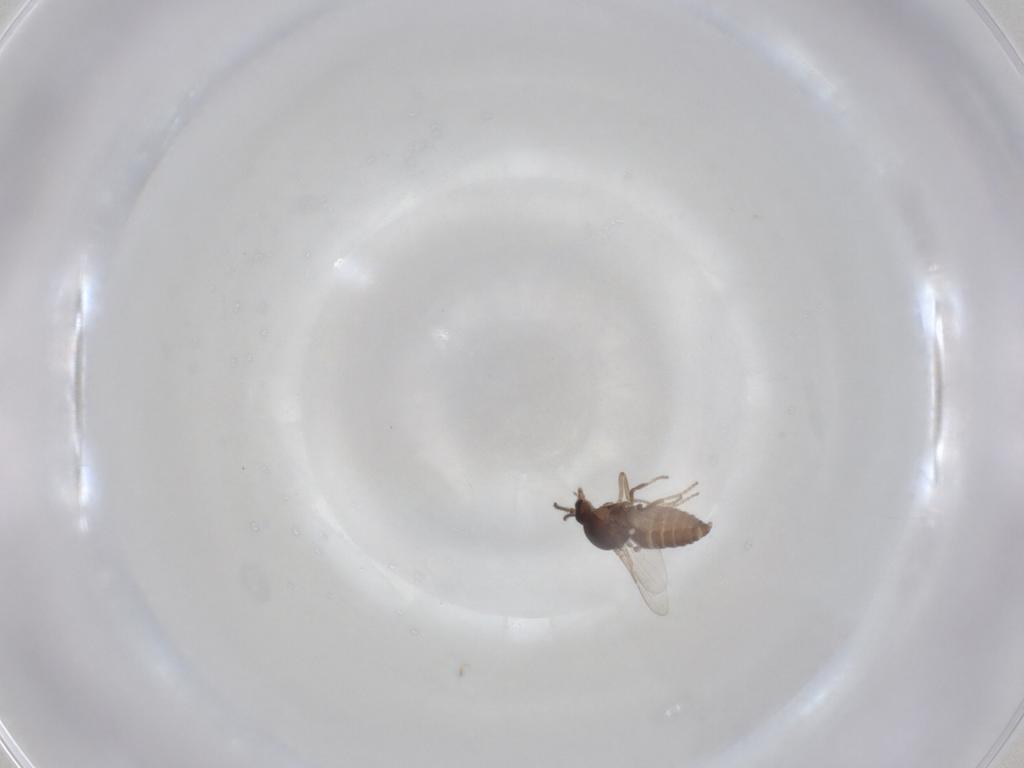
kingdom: Animalia
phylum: Arthropoda
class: Insecta
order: Diptera
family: Ceratopogonidae
